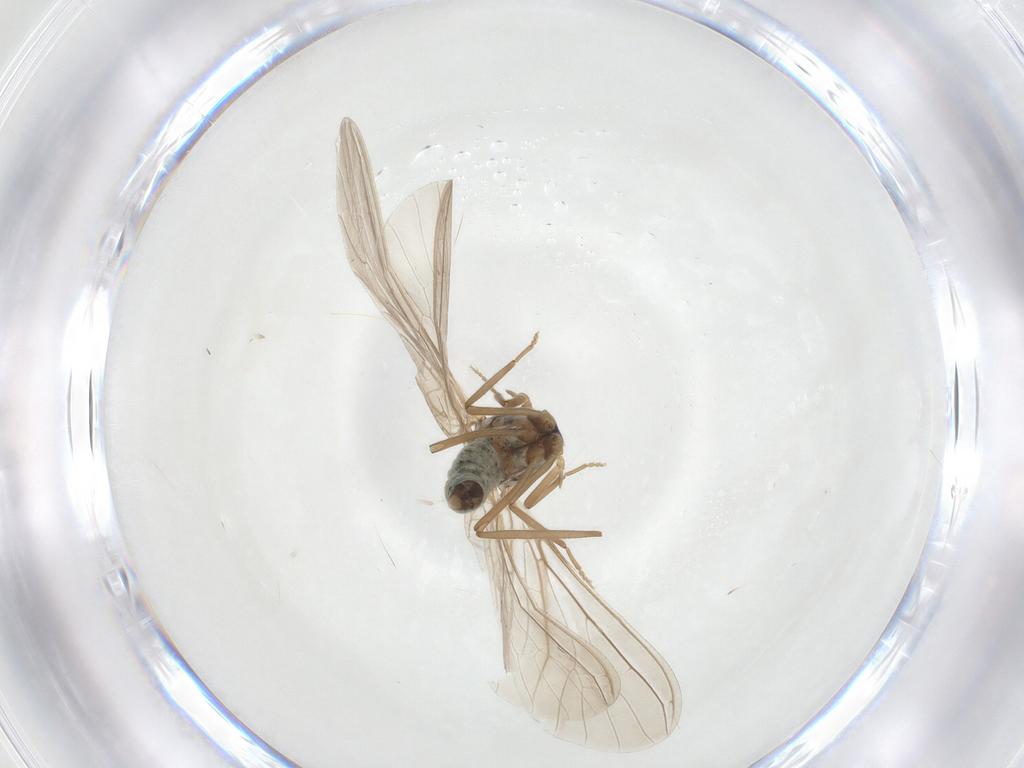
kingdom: Animalia
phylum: Arthropoda
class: Insecta
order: Neuroptera
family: Coniopterygidae
